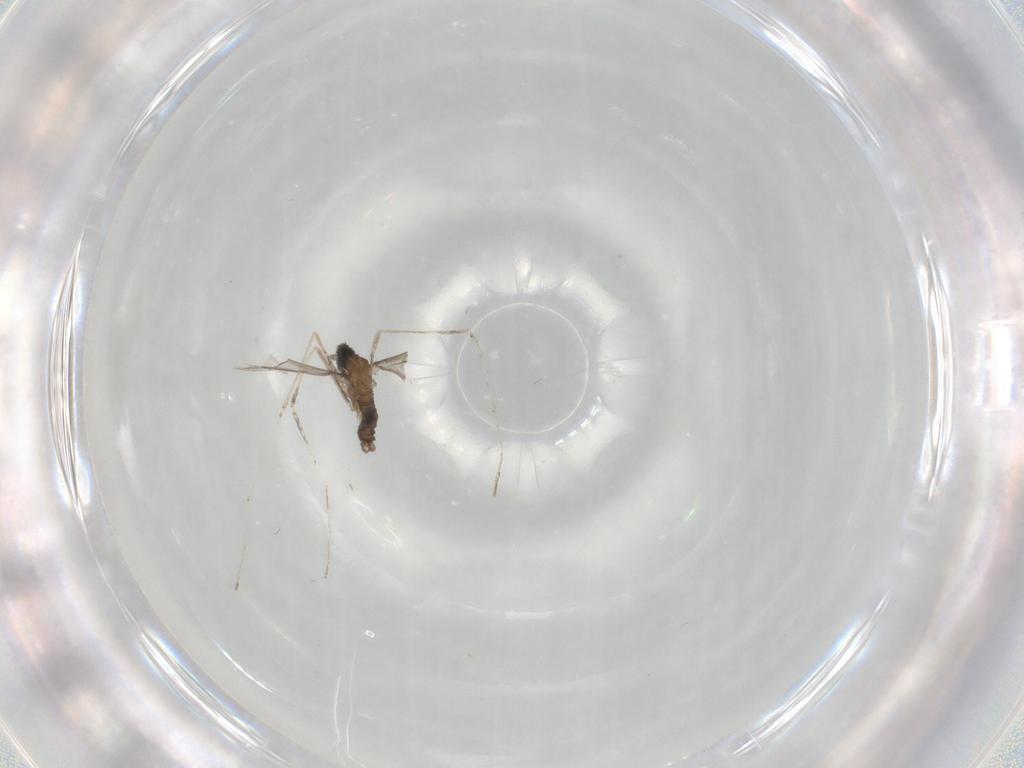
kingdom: Animalia
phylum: Arthropoda
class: Insecta
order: Diptera
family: Cecidomyiidae
